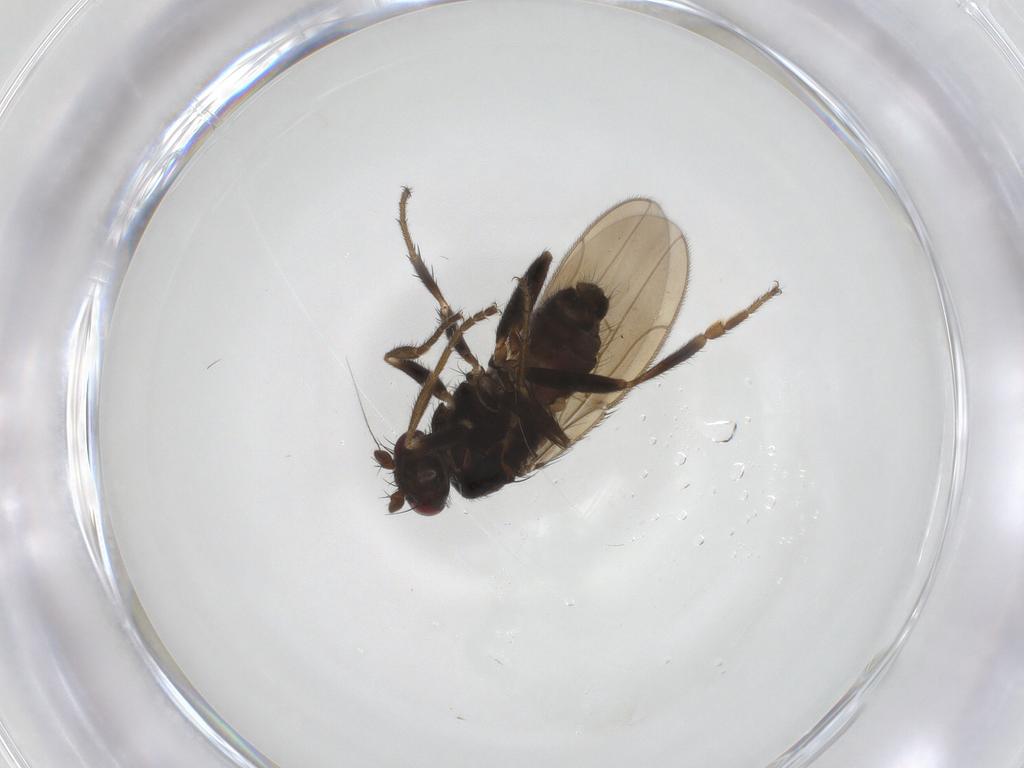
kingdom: Animalia
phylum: Arthropoda
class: Insecta
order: Diptera
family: Sphaeroceridae
